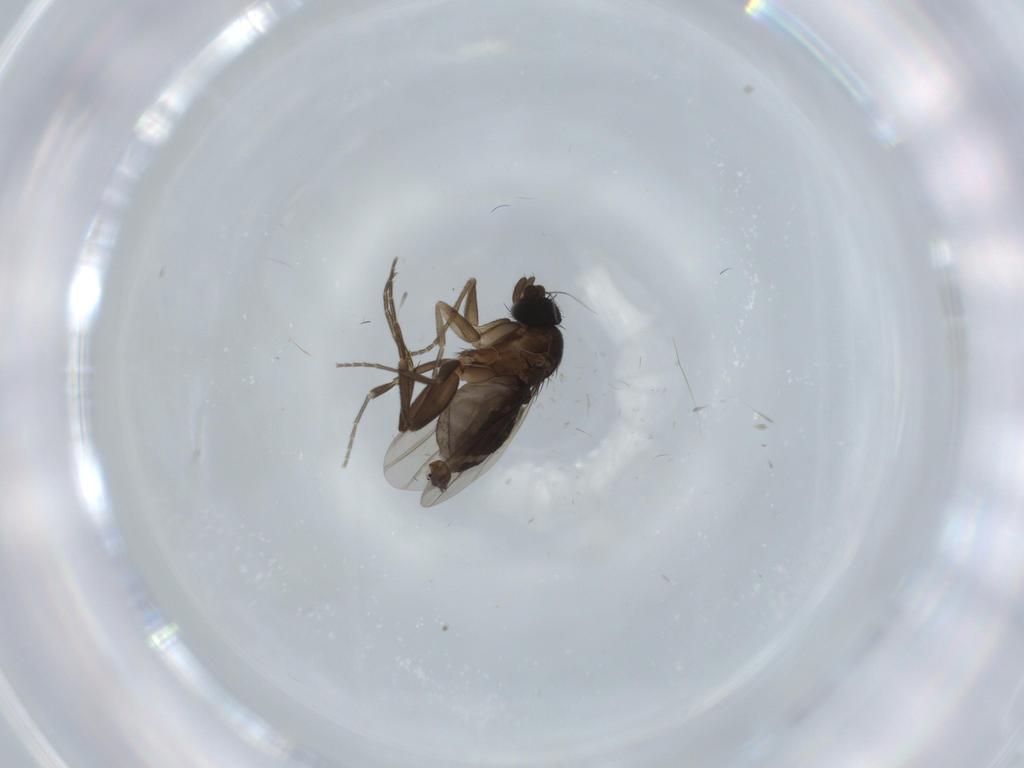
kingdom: Animalia
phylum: Arthropoda
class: Insecta
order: Diptera
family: Phoridae
